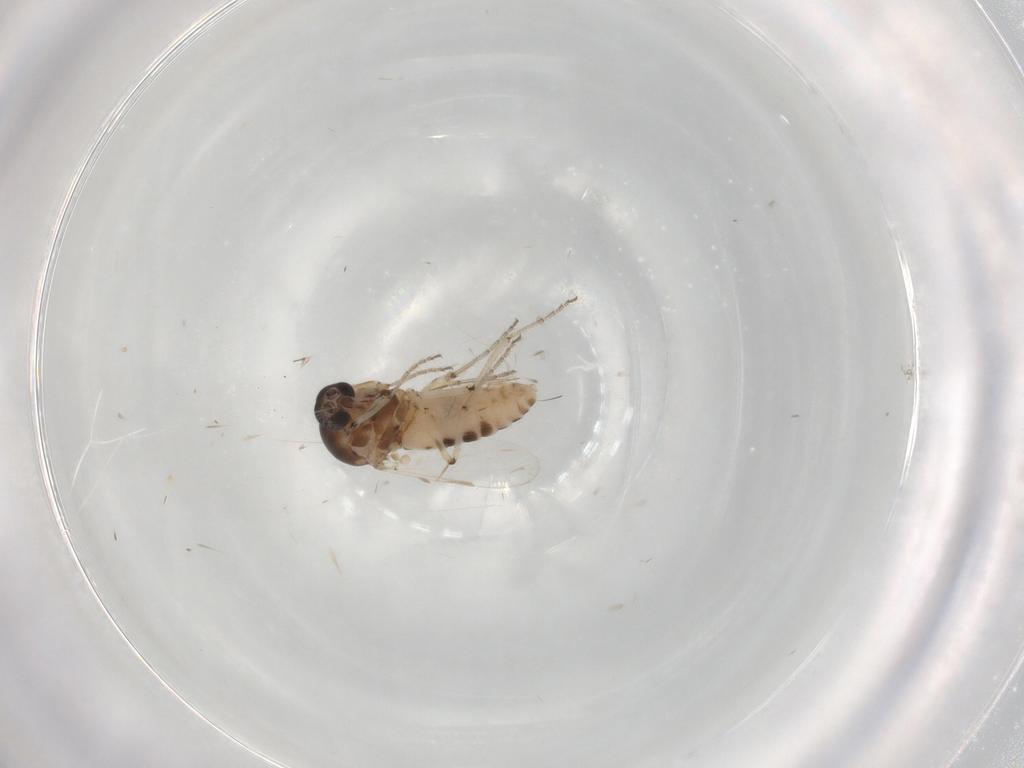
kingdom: Animalia
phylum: Arthropoda
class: Insecta
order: Diptera
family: Ceratopogonidae
